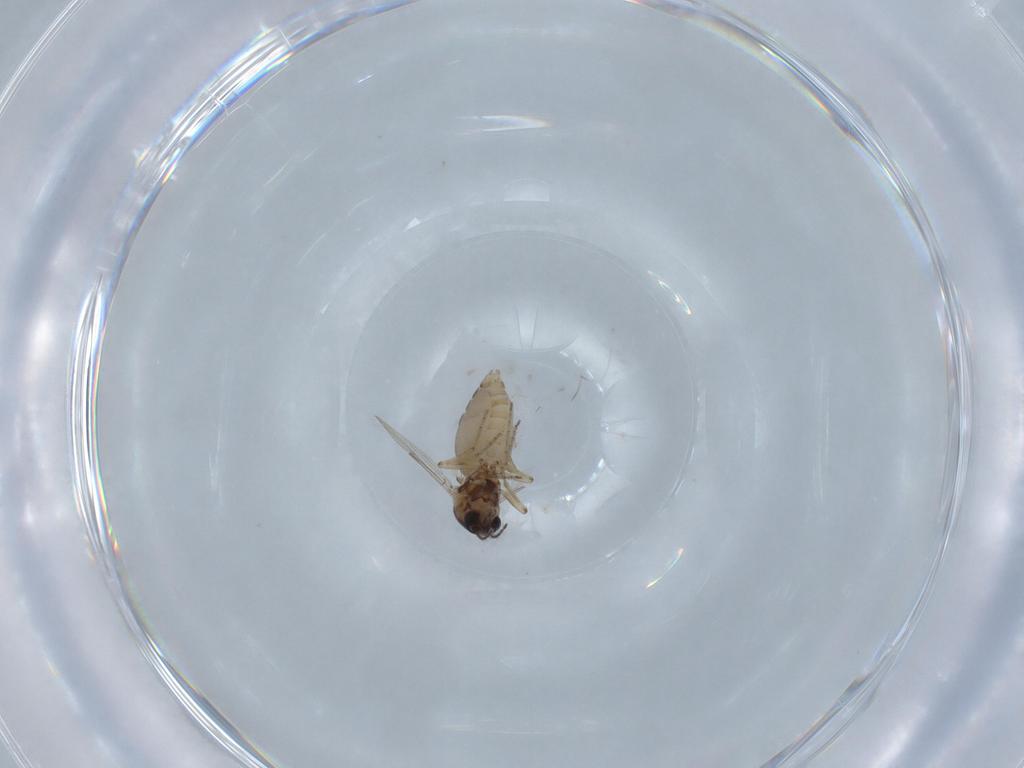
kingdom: Animalia
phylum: Arthropoda
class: Insecta
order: Diptera
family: Ceratopogonidae
